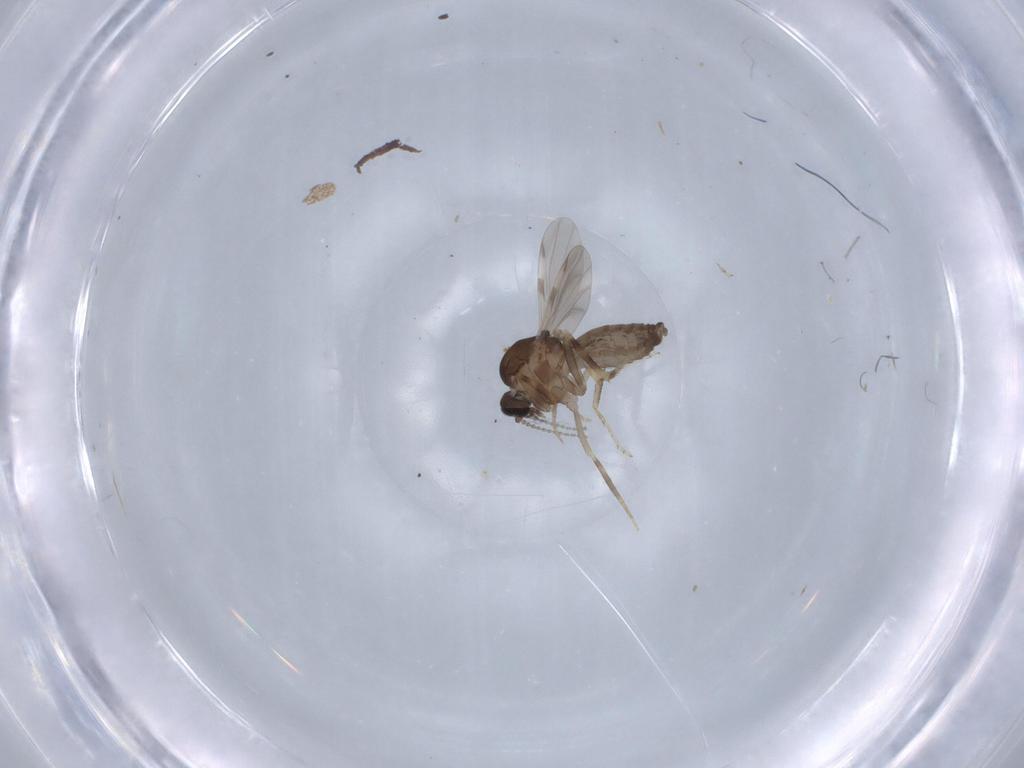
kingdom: Animalia
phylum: Arthropoda
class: Insecta
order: Diptera
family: Ceratopogonidae
